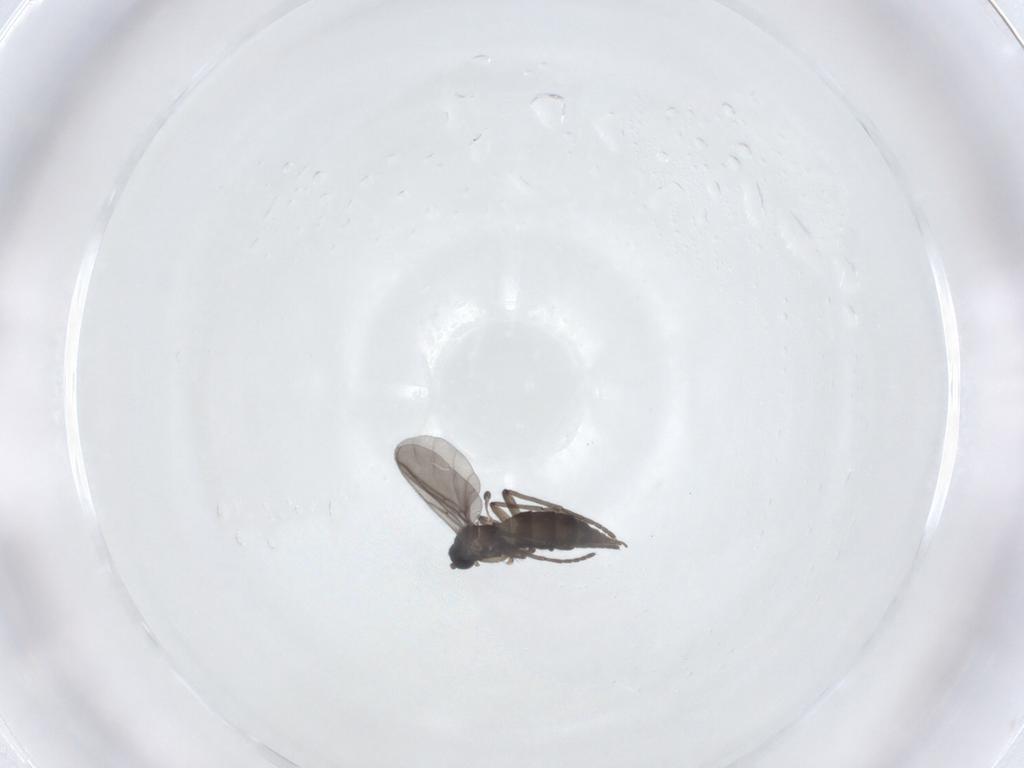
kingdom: Animalia
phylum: Arthropoda
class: Insecta
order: Diptera
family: Sciaridae
